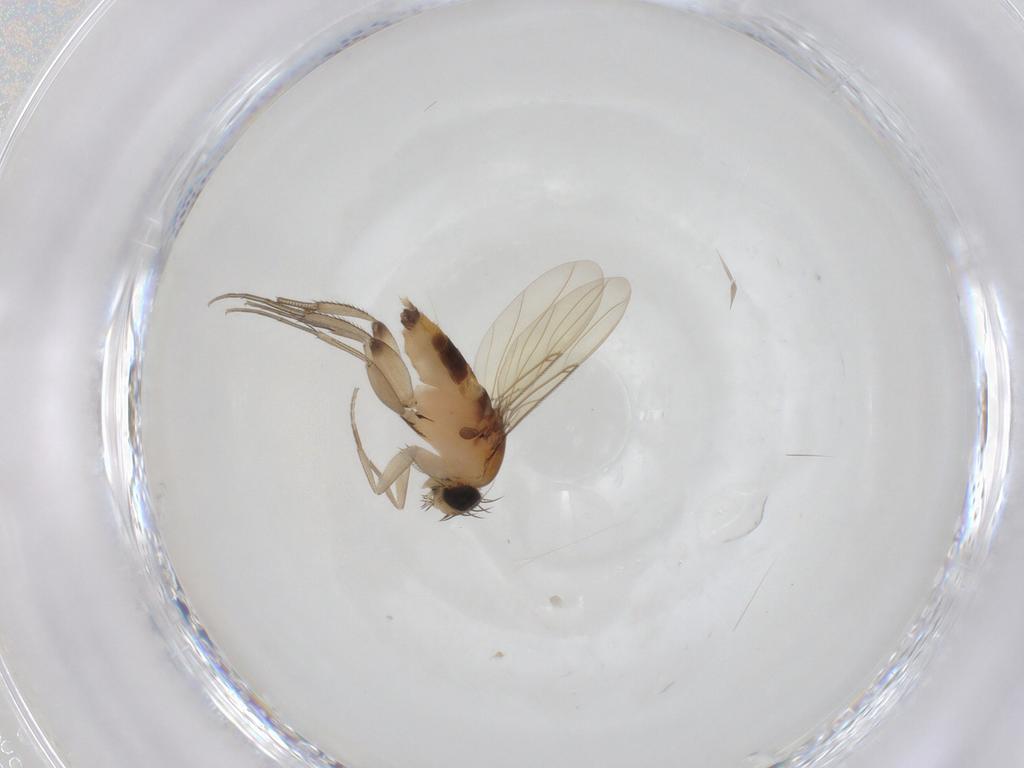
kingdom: Animalia
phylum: Arthropoda
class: Insecta
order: Diptera
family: Phoridae
